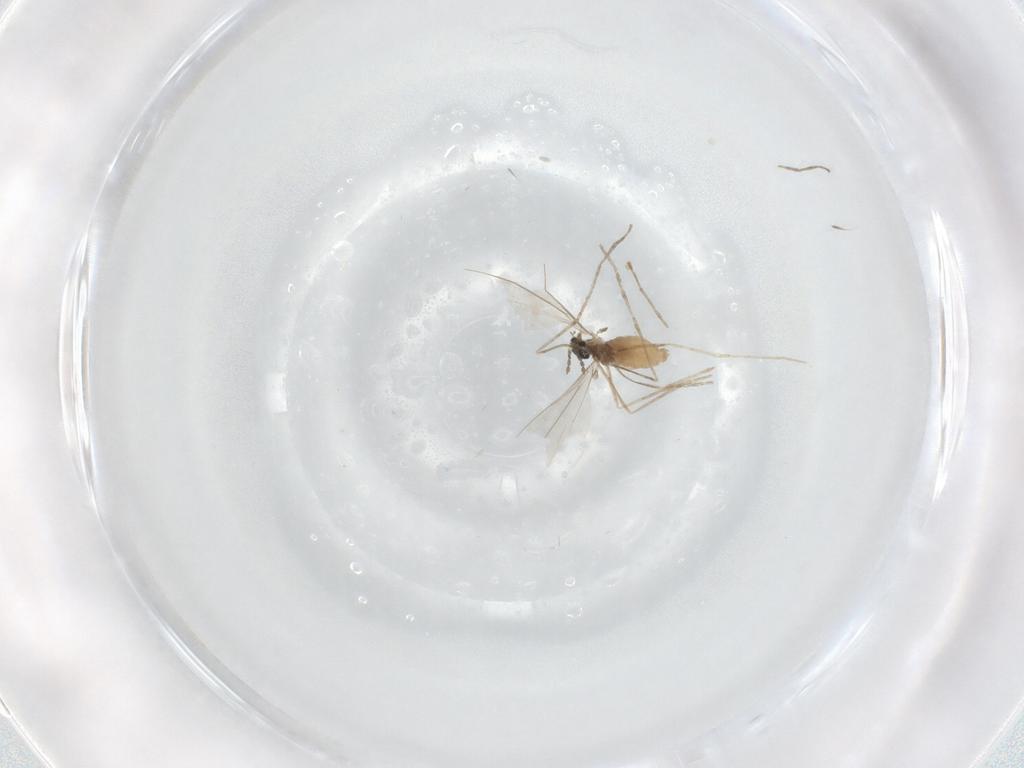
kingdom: Animalia
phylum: Arthropoda
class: Insecta
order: Diptera
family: Mycetophilidae
